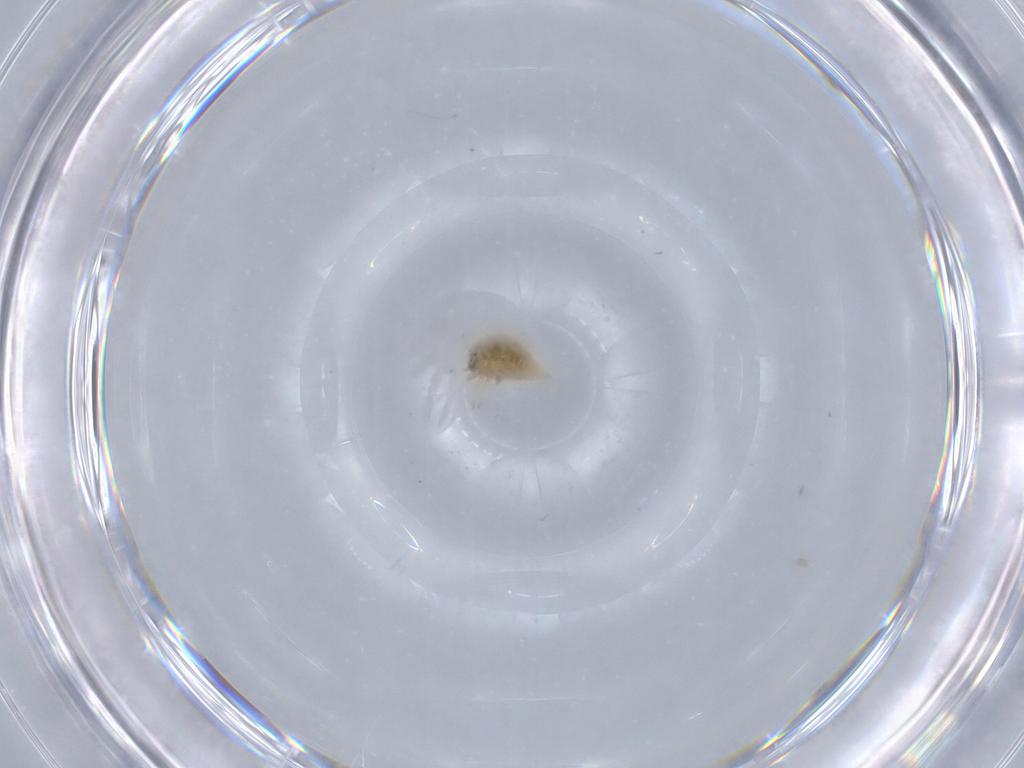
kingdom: Animalia
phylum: Arthropoda
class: Insecta
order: Neuroptera
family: Coniopterygidae
